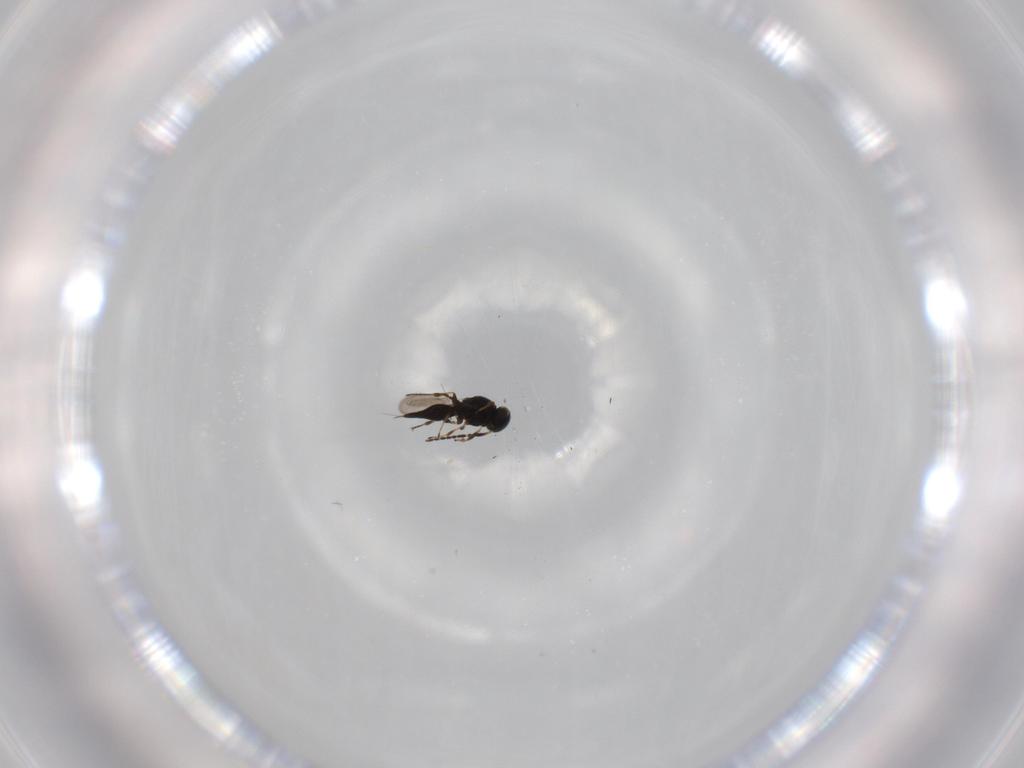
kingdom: Animalia
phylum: Arthropoda
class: Insecta
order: Hymenoptera
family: Platygastridae
